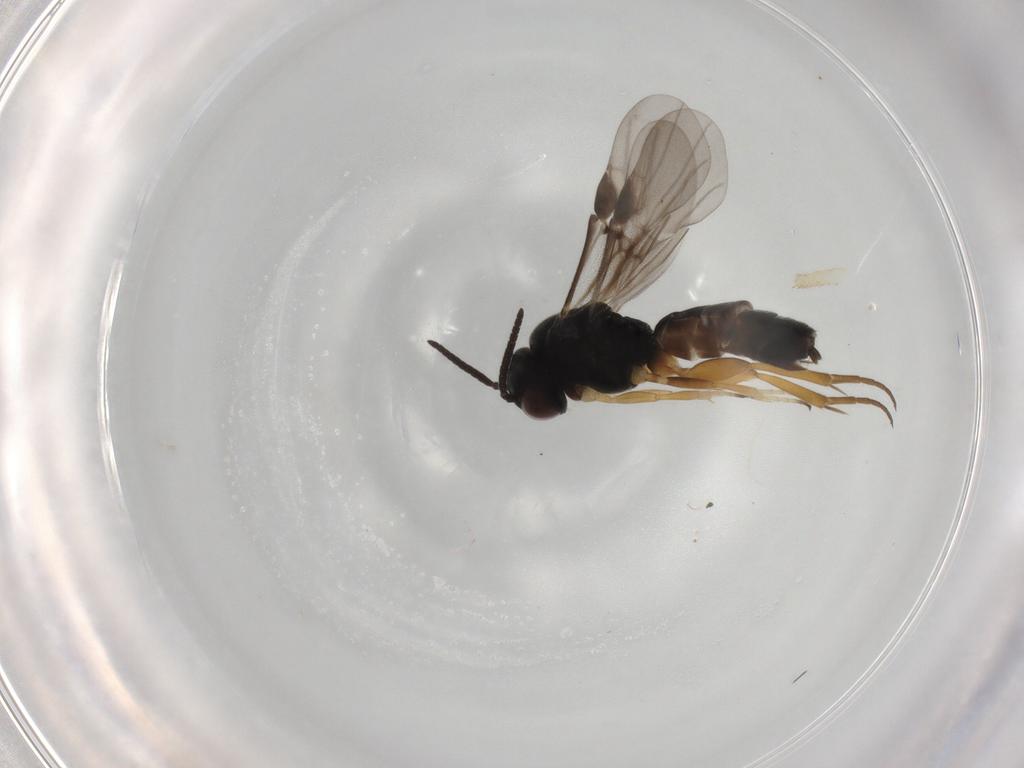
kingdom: Animalia
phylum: Arthropoda
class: Insecta
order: Hymenoptera
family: Braconidae
